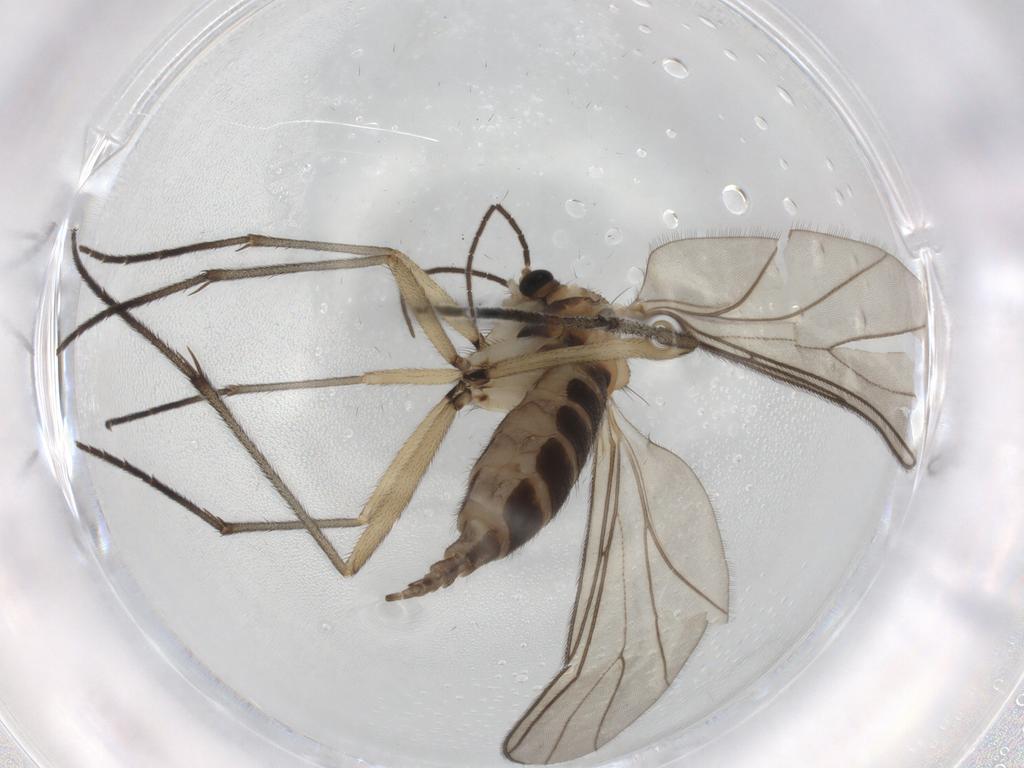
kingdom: Animalia
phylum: Arthropoda
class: Insecta
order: Diptera
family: Sciaridae
